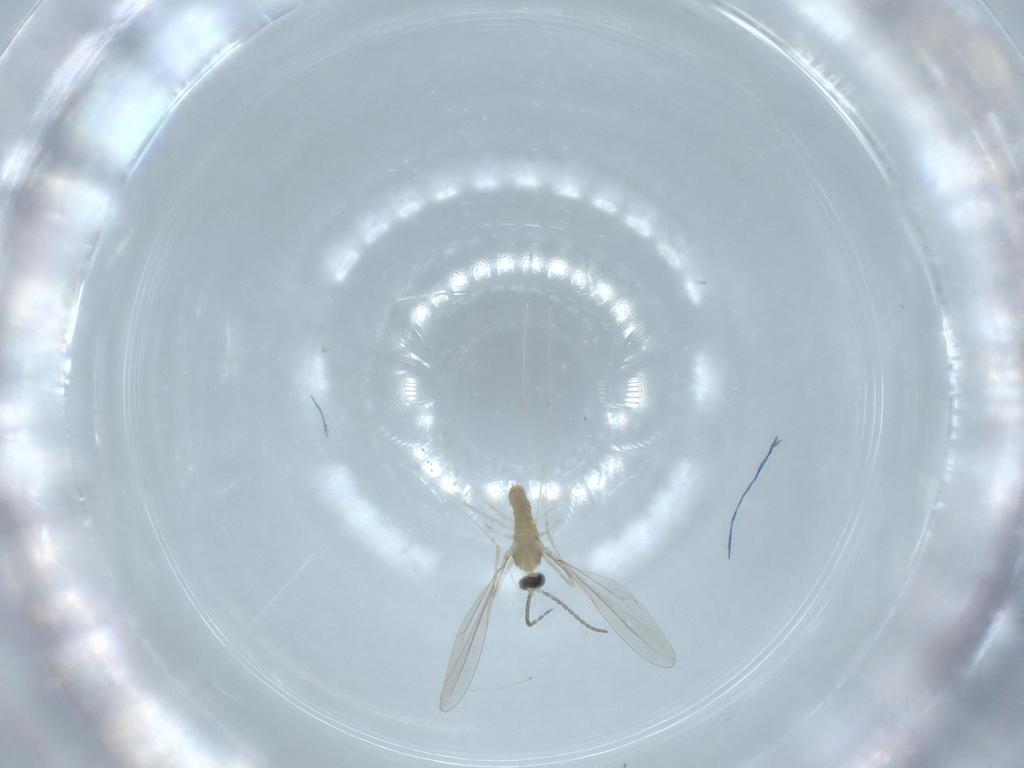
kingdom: Animalia
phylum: Arthropoda
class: Insecta
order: Diptera
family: Cecidomyiidae
